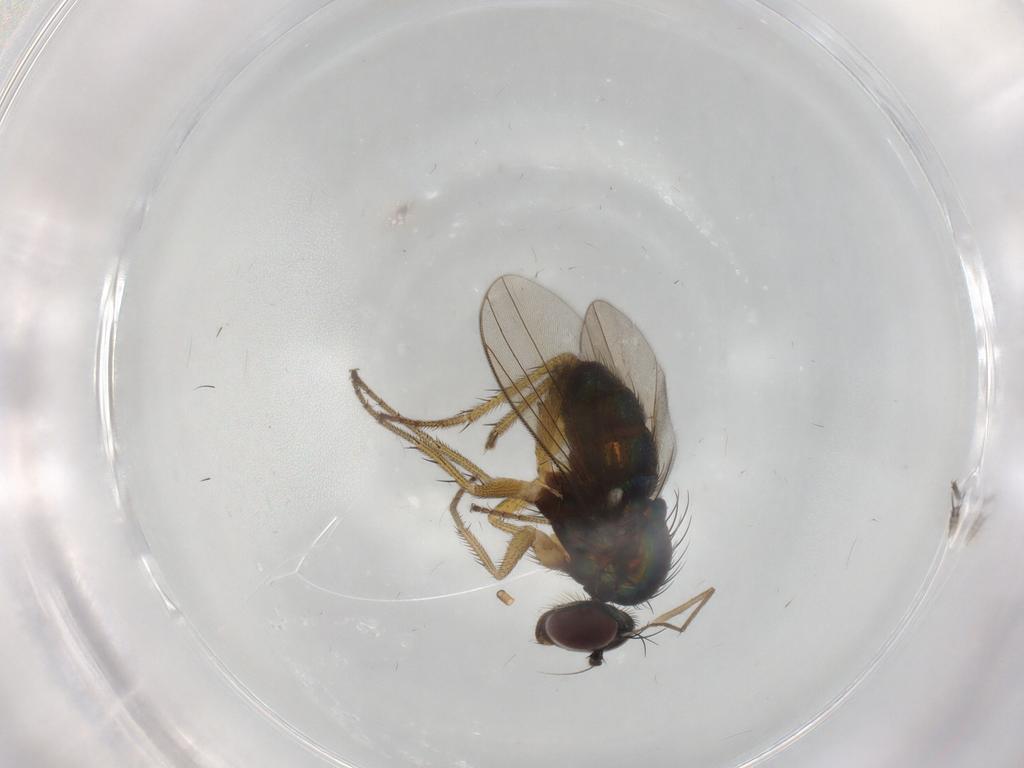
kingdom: Animalia
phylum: Arthropoda
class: Insecta
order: Diptera
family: Dolichopodidae
